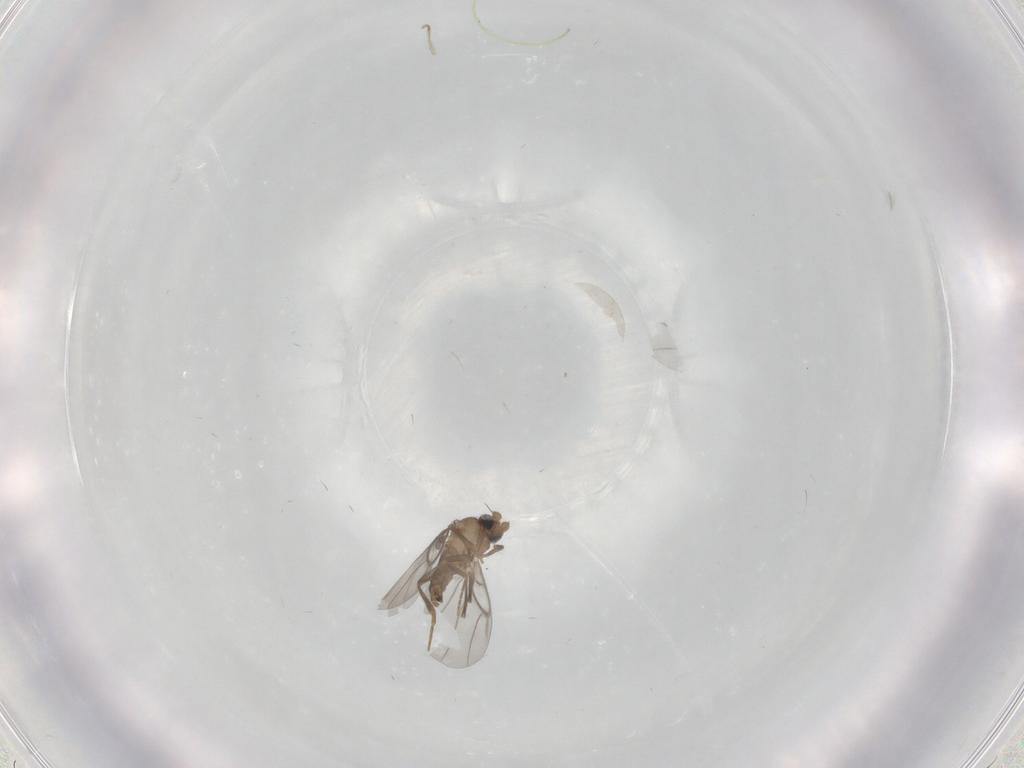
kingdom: Animalia
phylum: Arthropoda
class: Insecta
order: Diptera
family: Sciaridae
